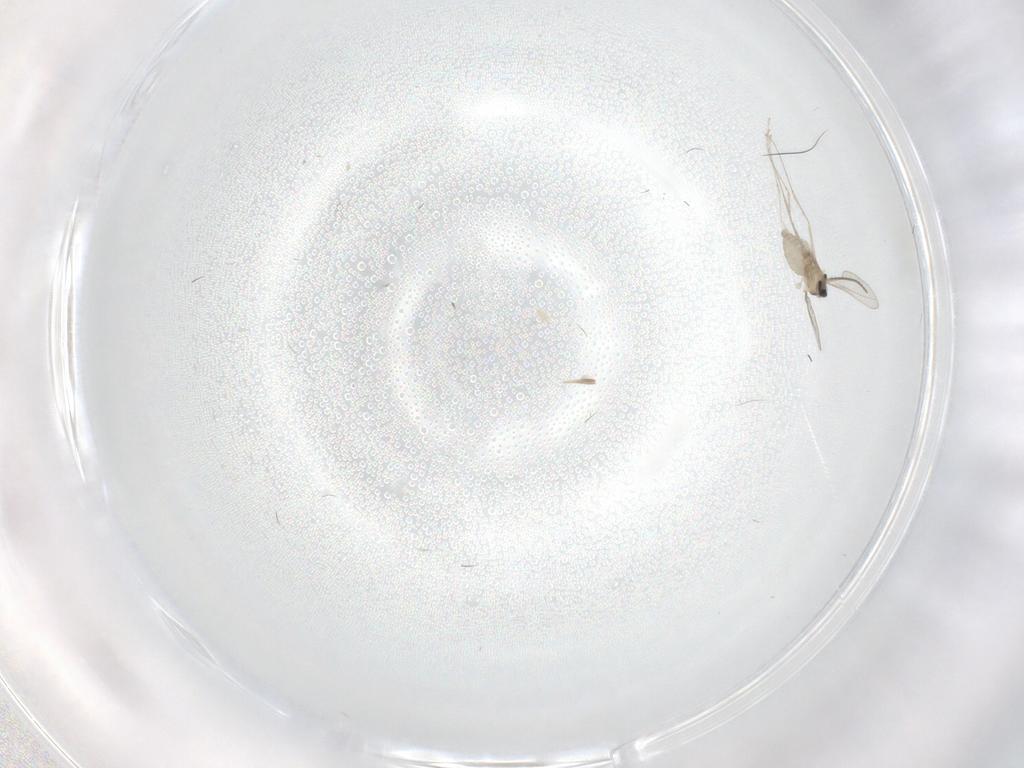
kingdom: Animalia
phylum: Arthropoda
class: Insecta
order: Diptera
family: Cecidomyiidae
